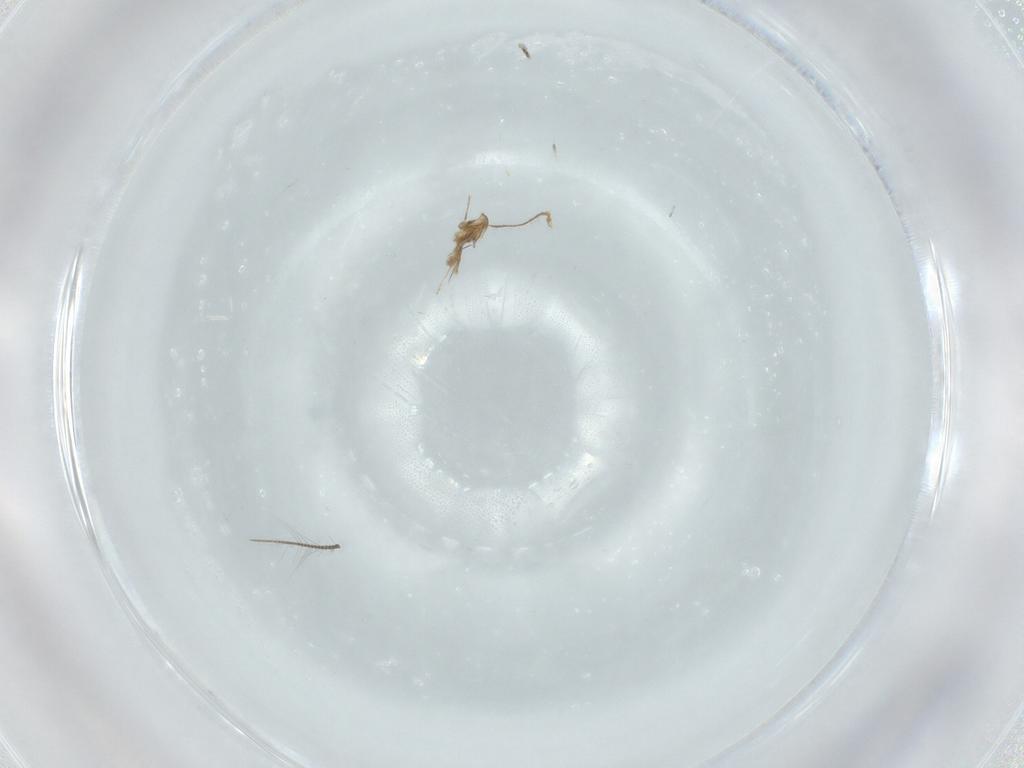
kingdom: Animalia
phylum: Arthropoda
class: Insecta
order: Diptera
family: Cecidomyiidae
